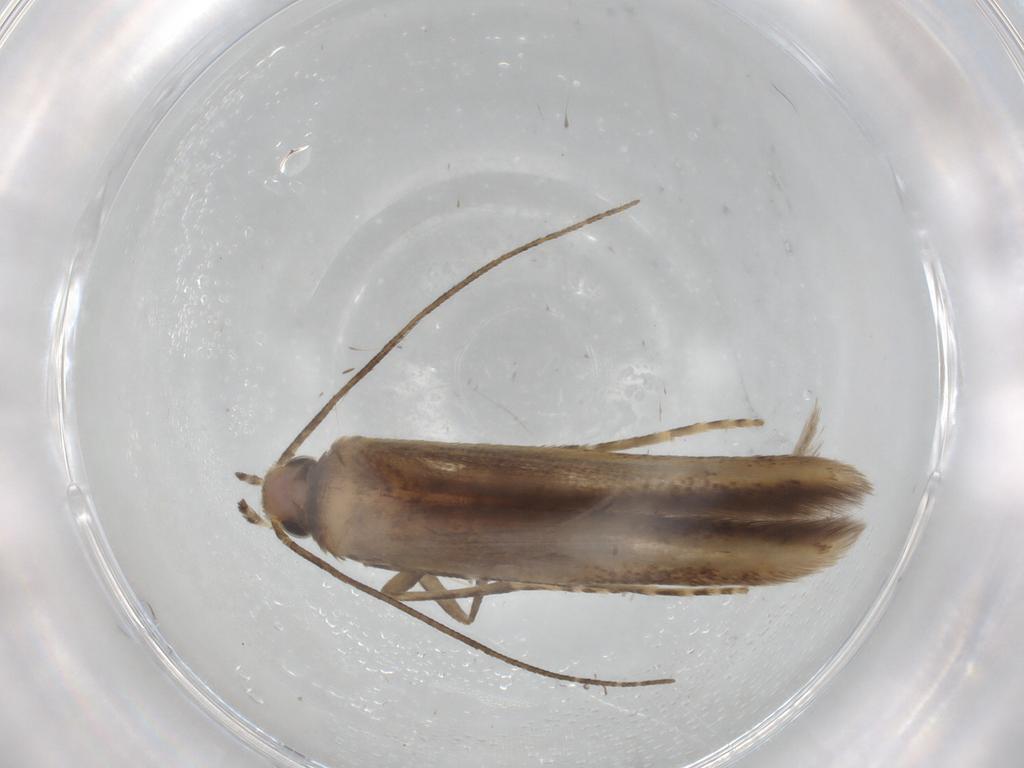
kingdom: Animalia
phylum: Arthropoda
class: Insecta
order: Lepidoptera
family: Batrachedridae
